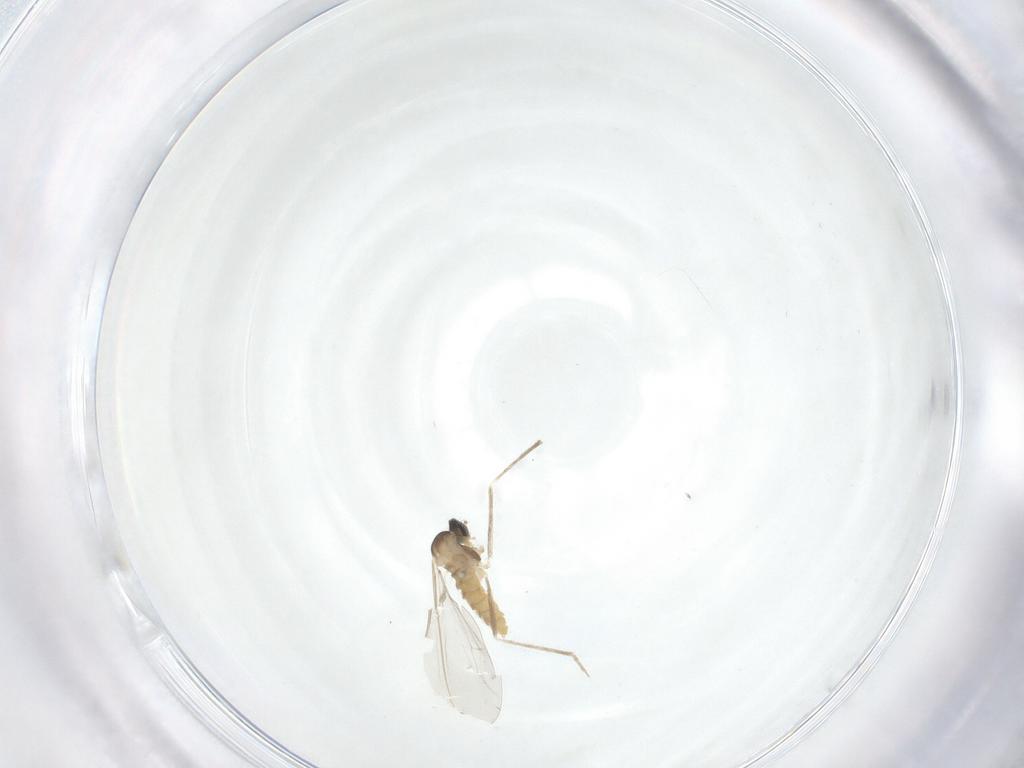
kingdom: Animalia
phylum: Arthropoda
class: Insecta
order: Diptera
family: Cecidomyiidae
